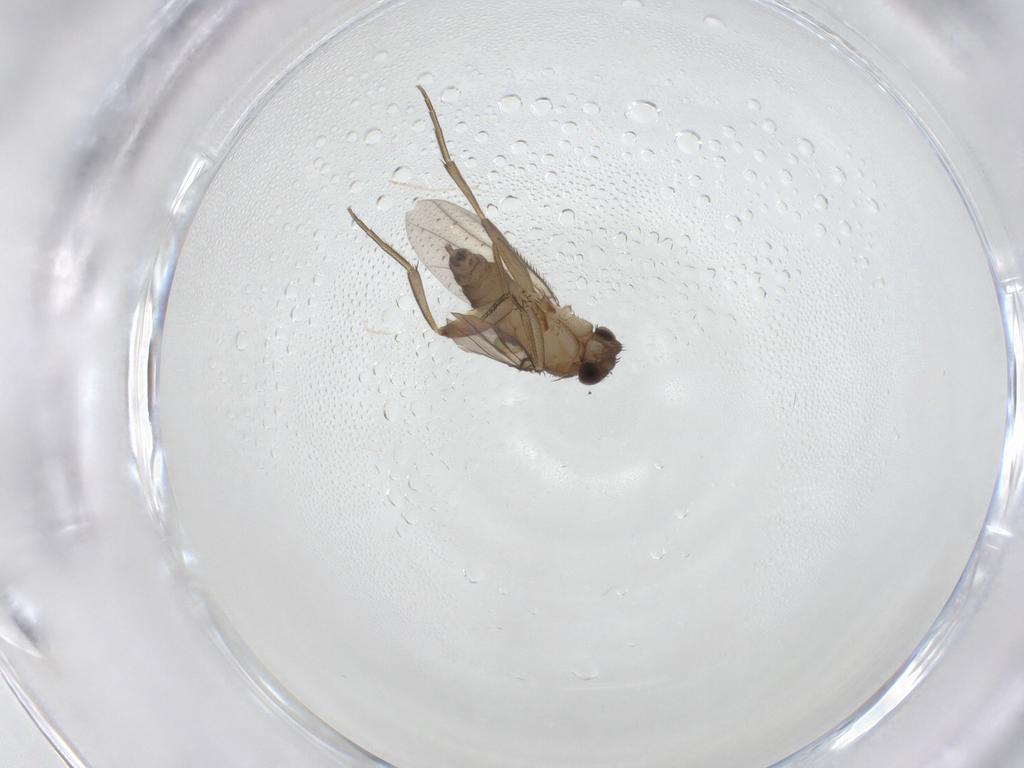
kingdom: Animalia
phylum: Arthropoda
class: Insecta
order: Diptera
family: Phoridae
